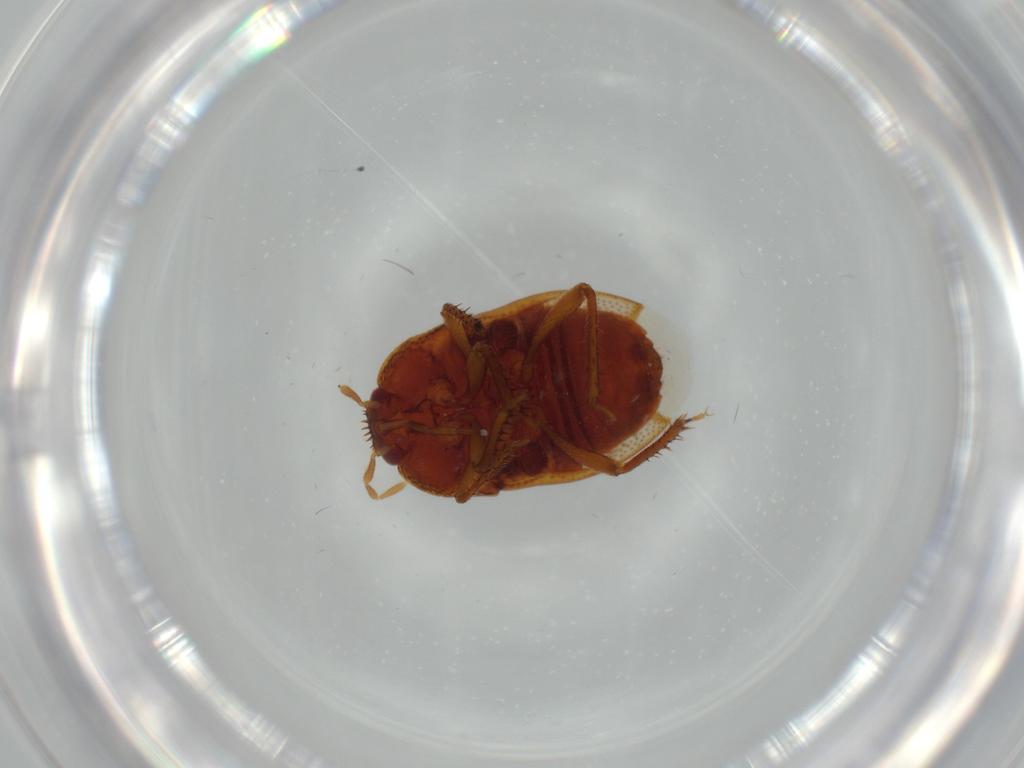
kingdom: Animalia
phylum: Arthropoda
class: Insecta
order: Hemiptera
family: Cydnidae
